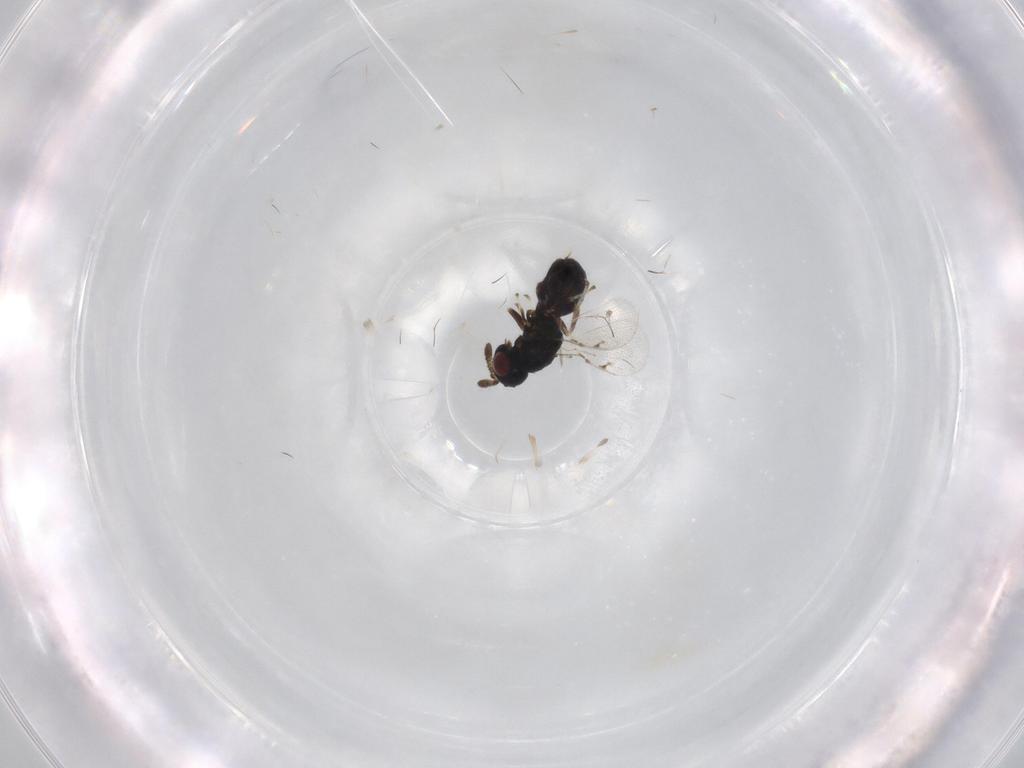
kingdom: Animalia
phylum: Arthropoda
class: Insecta
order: Hymenoptera
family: Pteromalidae
